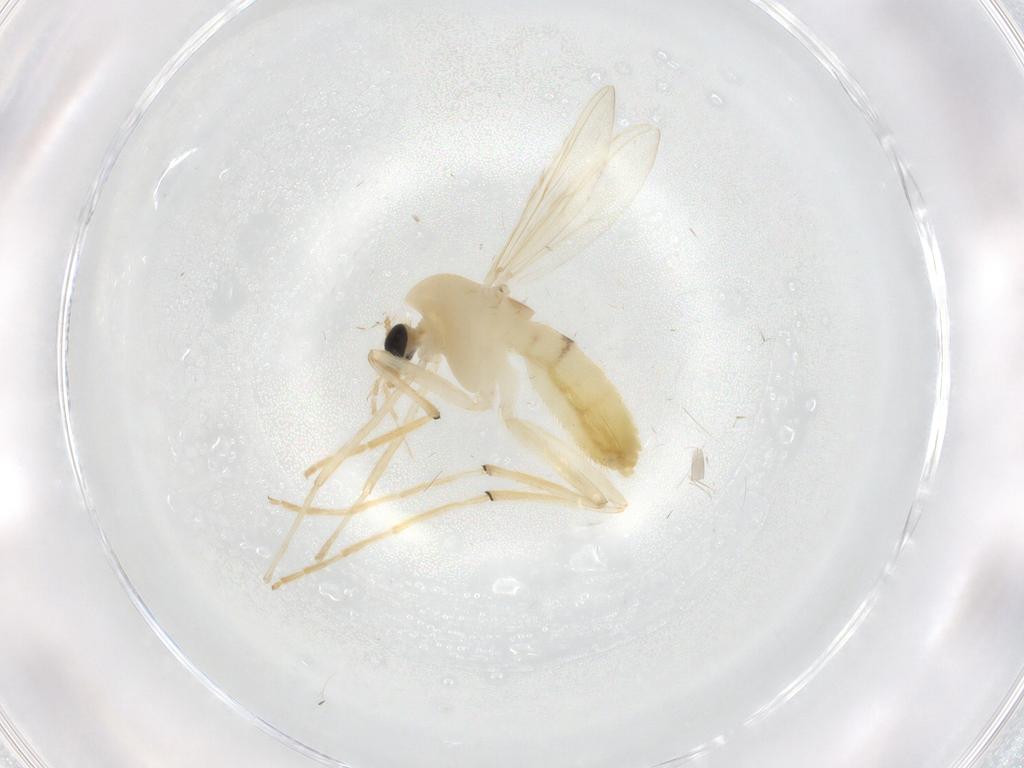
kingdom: Animalia
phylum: Arthropoda
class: Insecta
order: Diptera
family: Chironomidae
